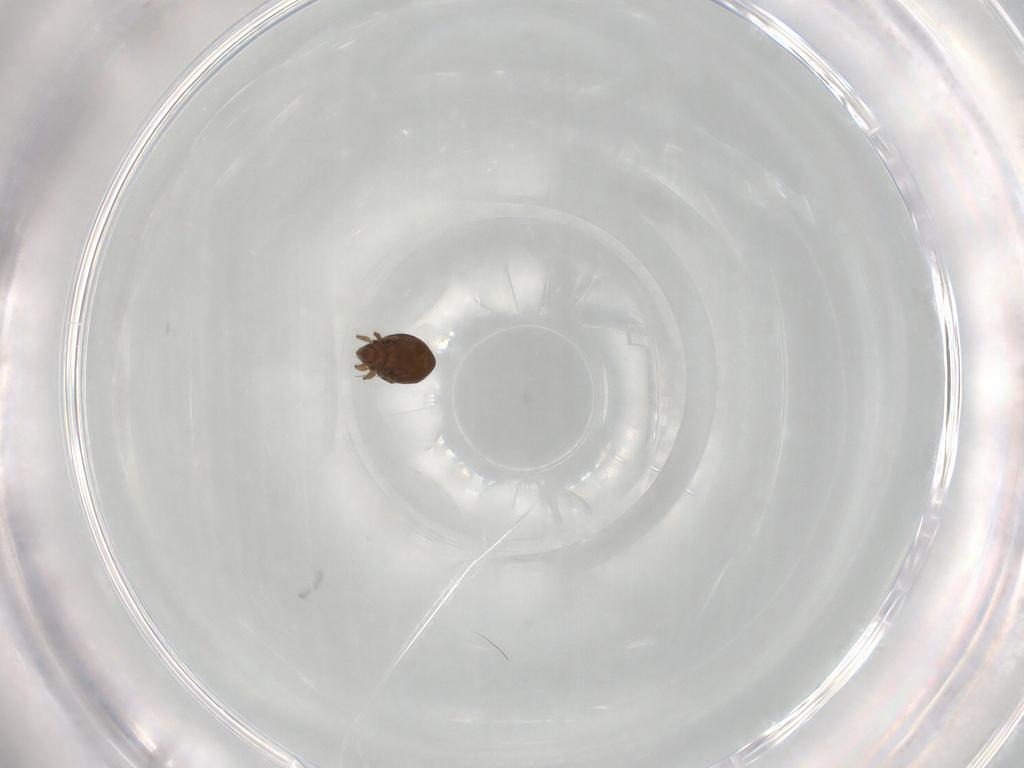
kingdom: Animalia
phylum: Arthropoda
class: Arachnida
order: Sarcoptiformes
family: Oribatulidae
